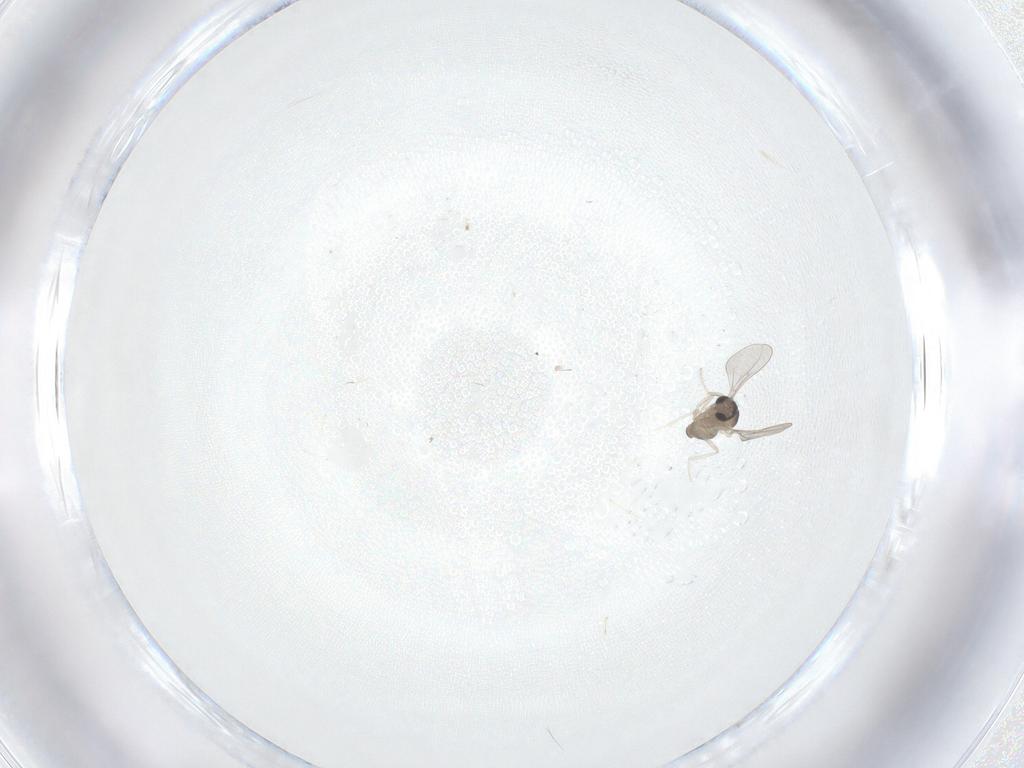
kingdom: Animalia
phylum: Arthropoda
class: Insecta
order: Diptera
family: Cecidomyiidae
